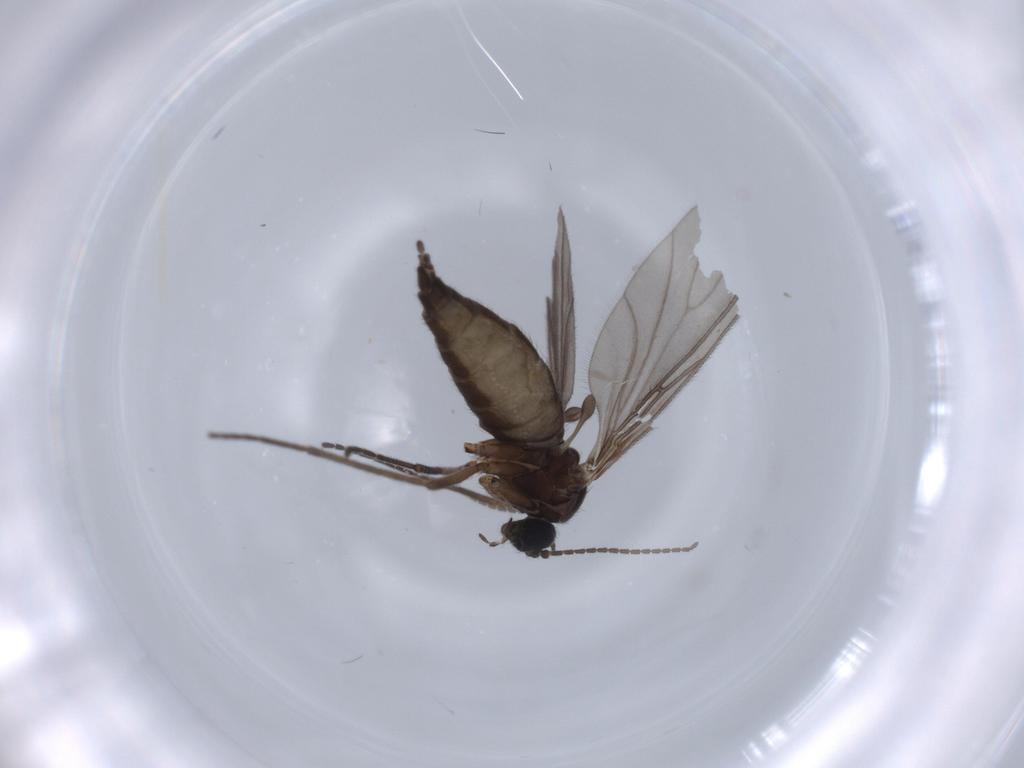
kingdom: Animalia
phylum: Arthropoda
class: Insecta
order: Diptera
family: Sciaridae
